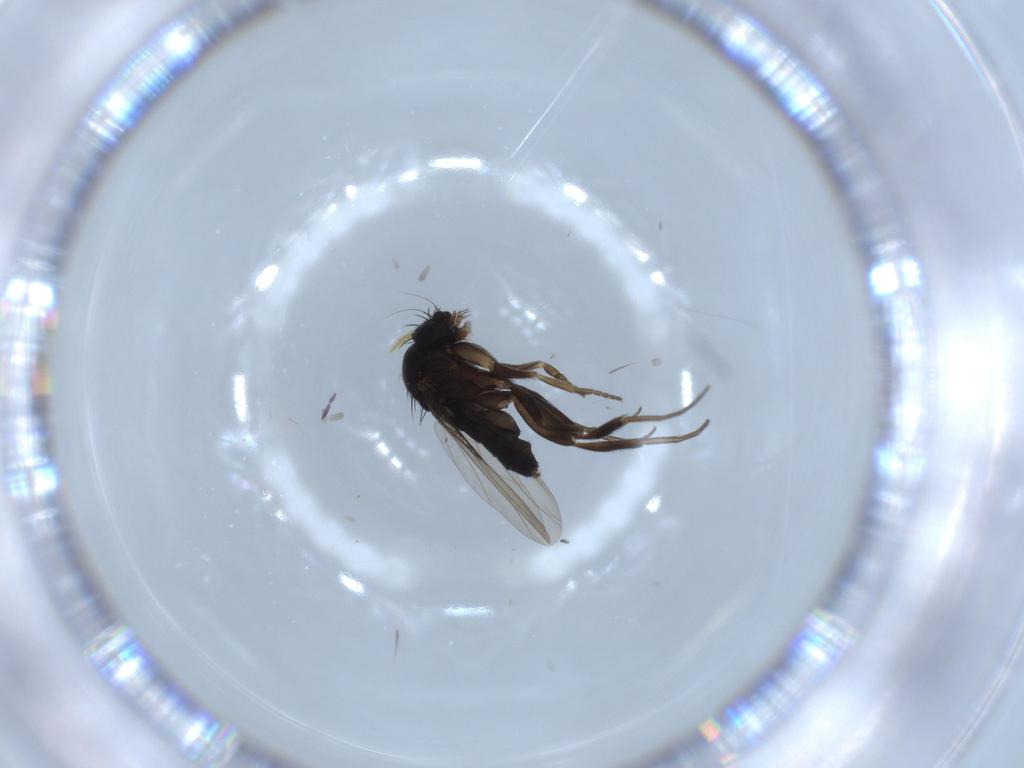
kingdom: Animalia
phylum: Arthropoda
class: Insecta
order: Diptera
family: Phoridae
